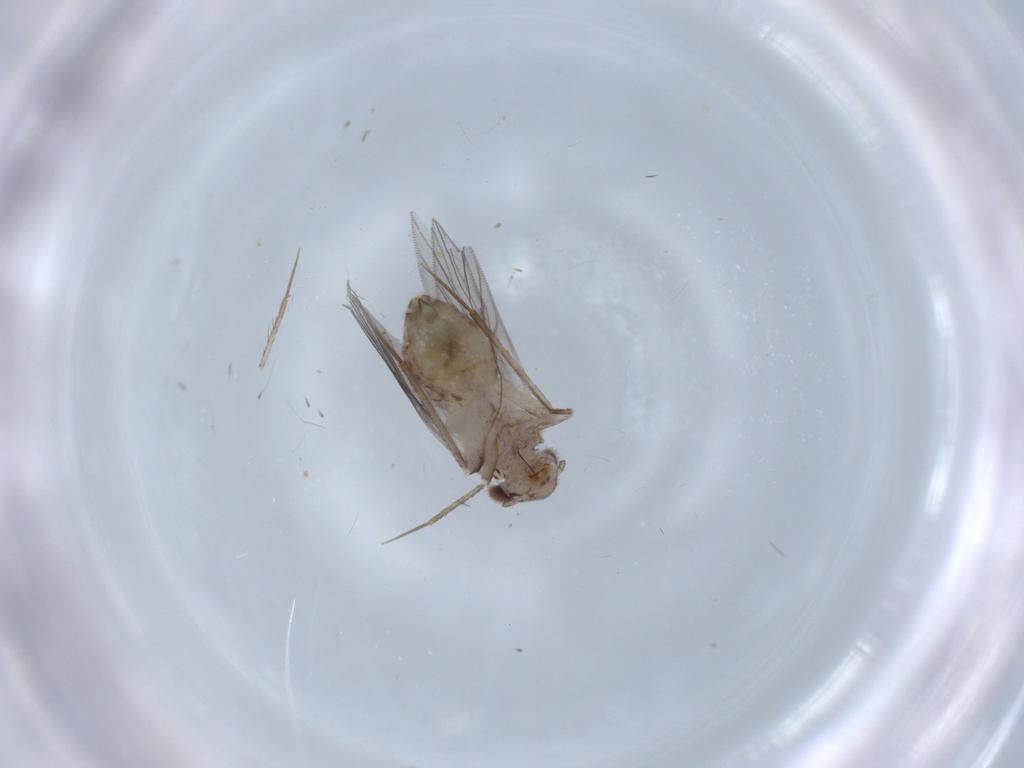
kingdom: Animalia
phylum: Arthropoda
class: Insecta
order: Psocodea
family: Lepidopsocidae
